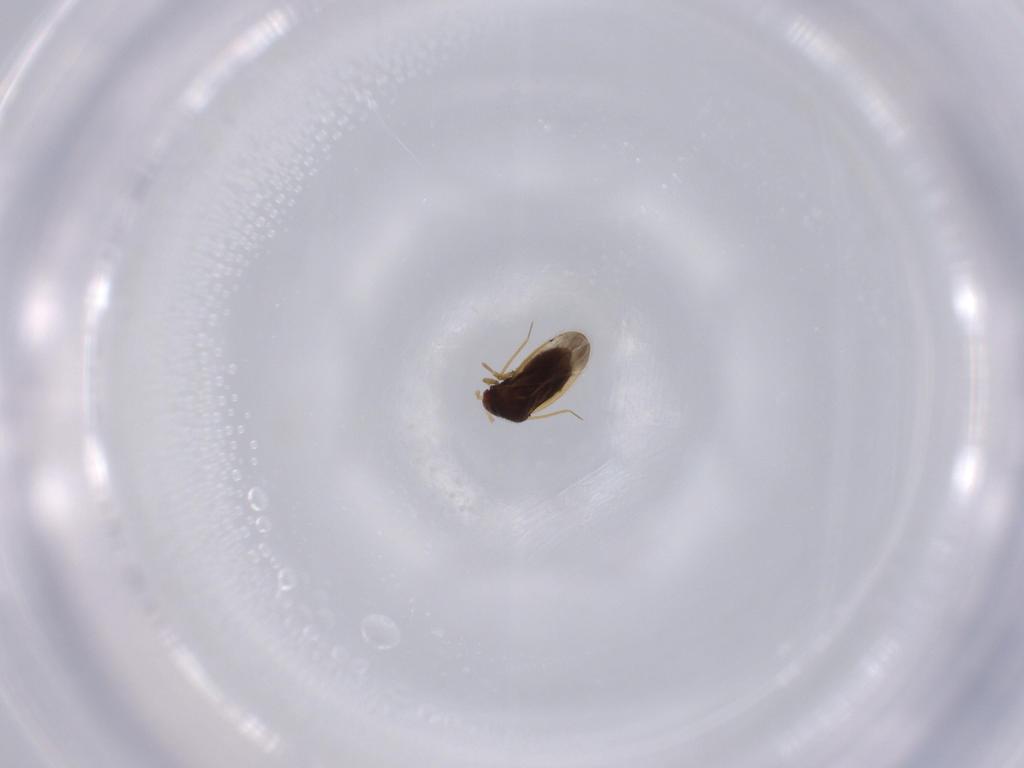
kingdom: Animalia
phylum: Arthropoda
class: Insecta
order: Hemiptera
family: Schizopteridae
